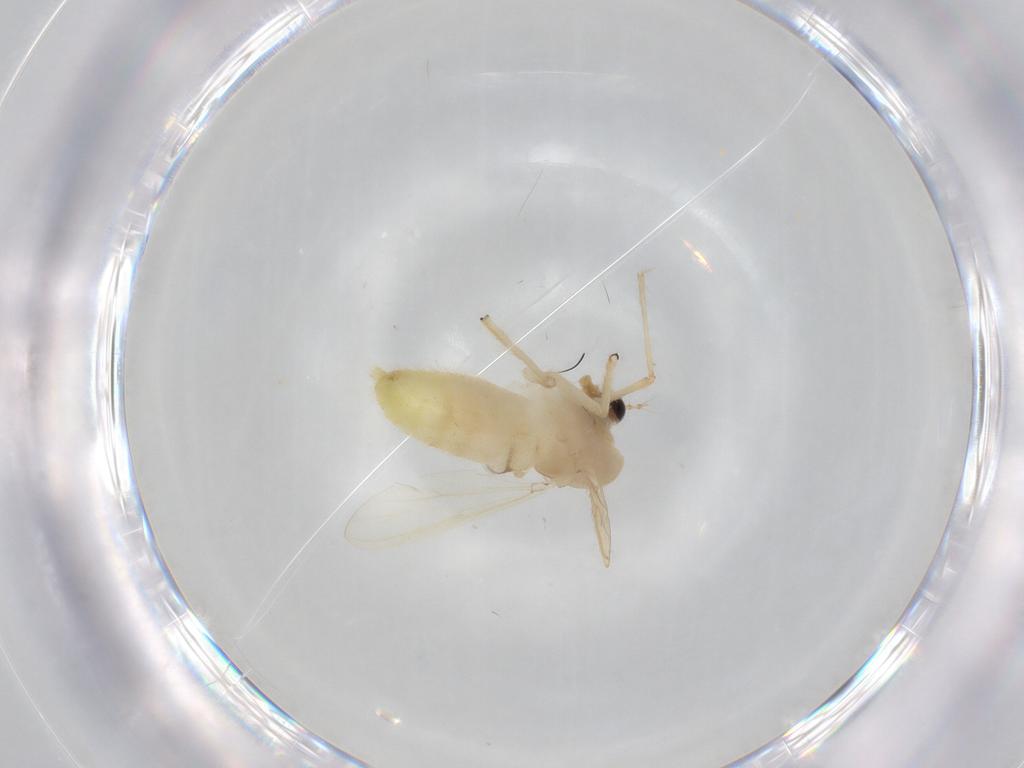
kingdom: Animalia
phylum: Arthropoda
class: Insecta
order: Diptera
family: Chironomidae
